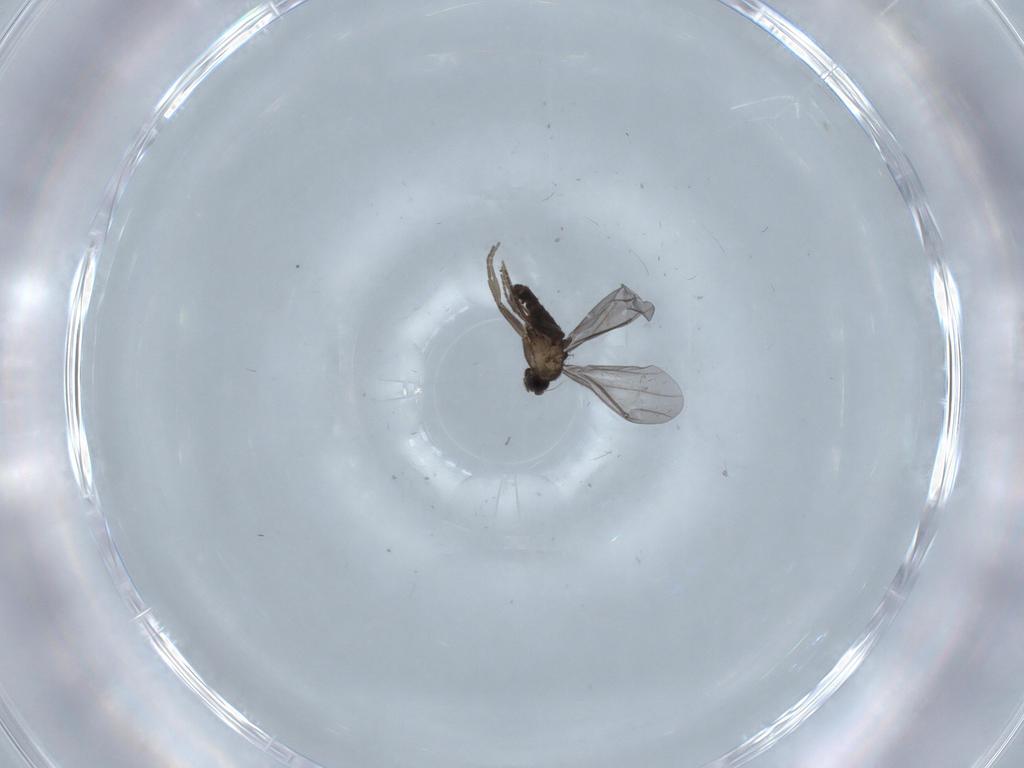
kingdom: Animalia
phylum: Arthropoda
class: Insecta
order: Diptera
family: Phoridae
